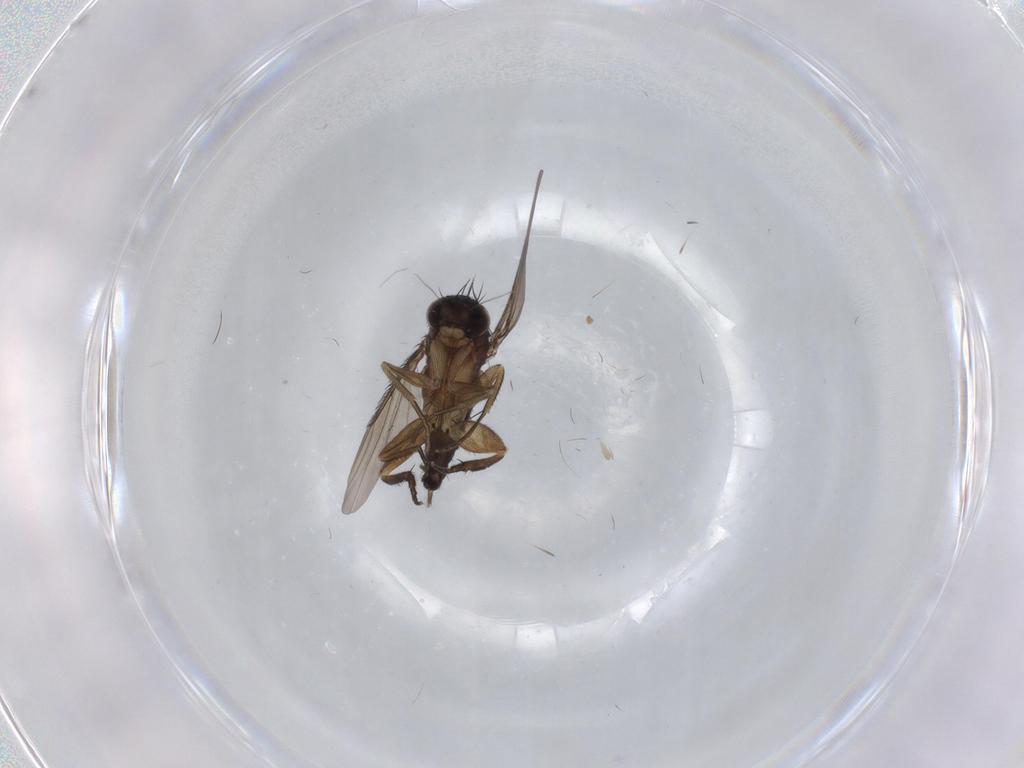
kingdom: Animalia
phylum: Arthropoda
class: Insecta
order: Diptera
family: Phoridae
